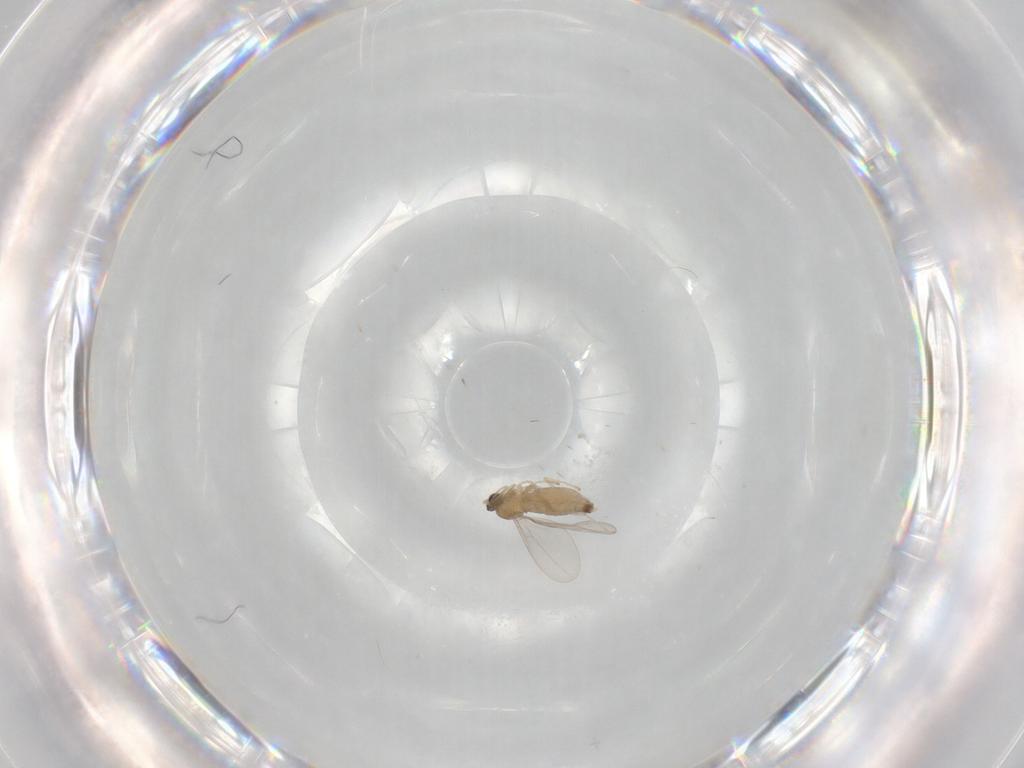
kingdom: Animalia
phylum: Arthropoda
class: Insecta
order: Diptera
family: Cecidomyiidae
